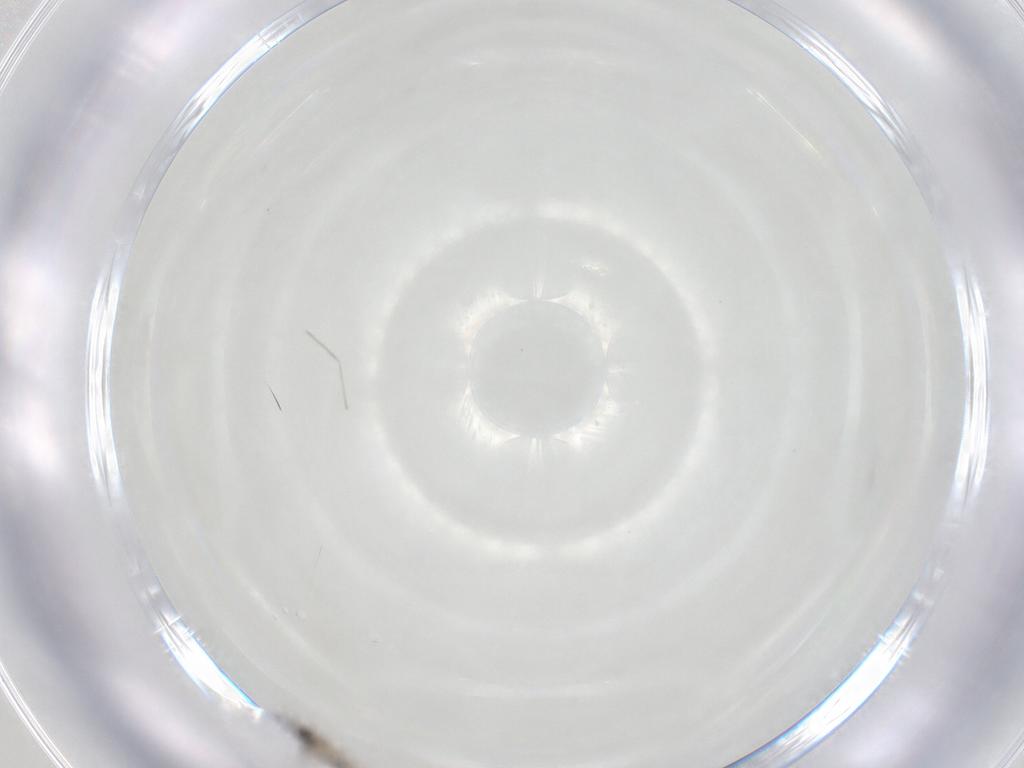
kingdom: Animalia
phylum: Arthropoda
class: Insecta
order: Diptera
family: Cecidomyiidae
